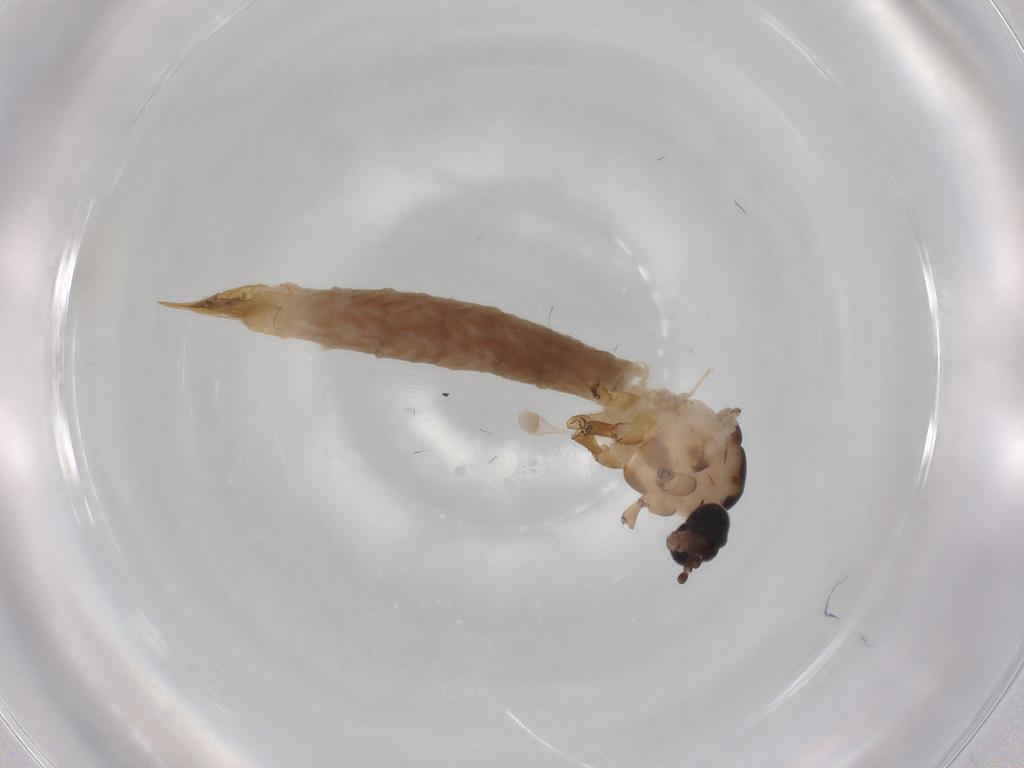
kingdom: Animalia
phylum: Arthropoda
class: Insecta
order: Diptera
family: Limoniidae
